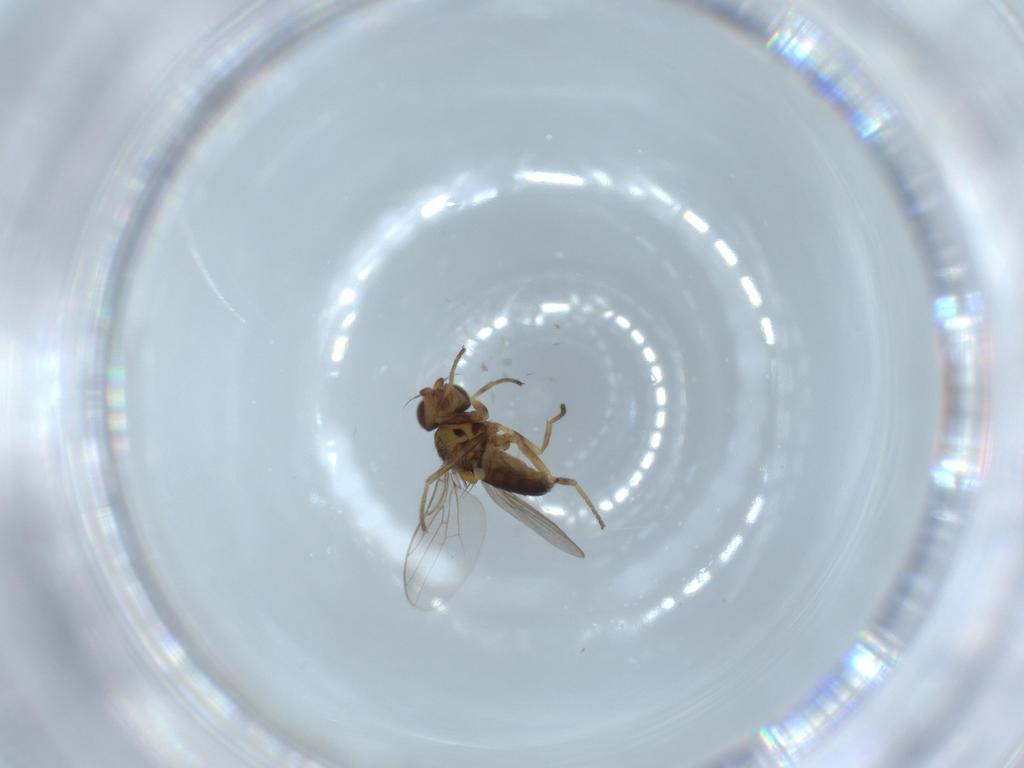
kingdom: Animalia
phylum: Arthropoda
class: Insecta
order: Diptera
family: Chloropidae
